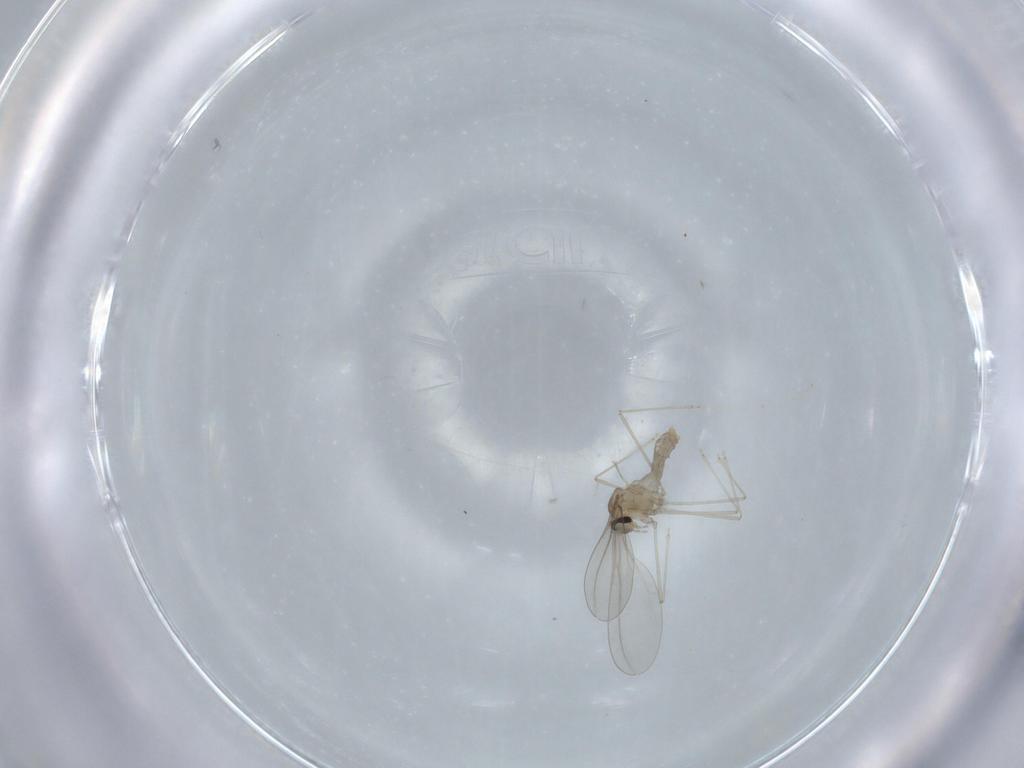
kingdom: Animalia
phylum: Arthropoda
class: Insecta
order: Diptera
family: Cecidomyiidae
